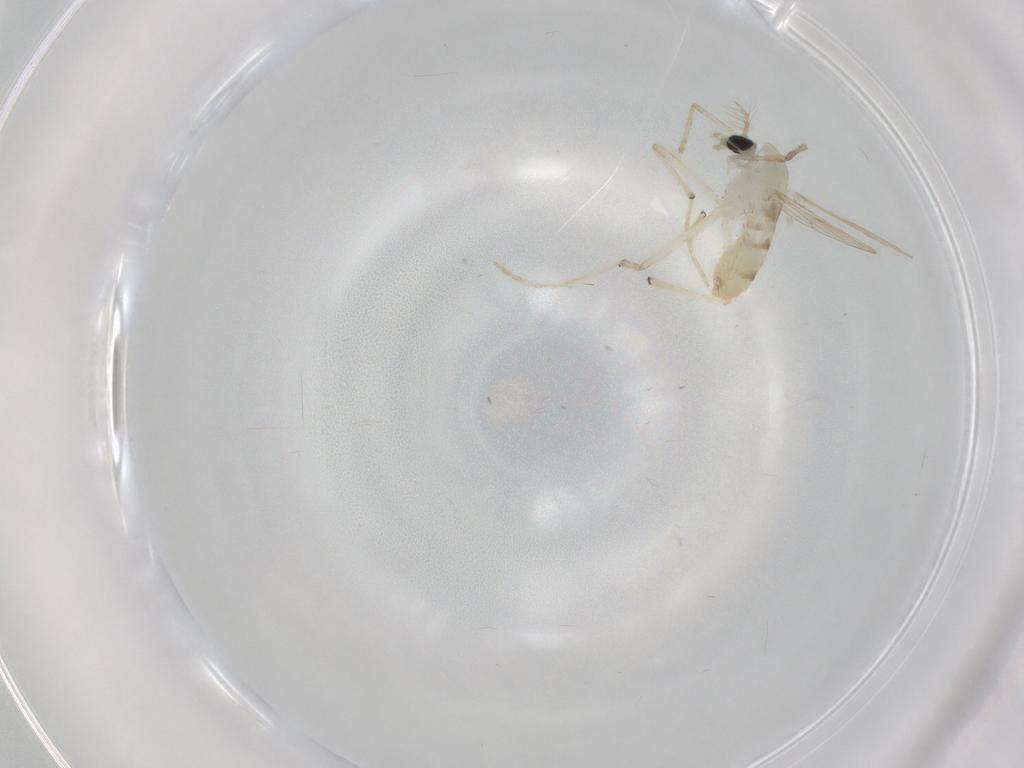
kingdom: Animalia
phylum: Arthropoda
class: Insecta
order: Diptera
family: Chironomidae
